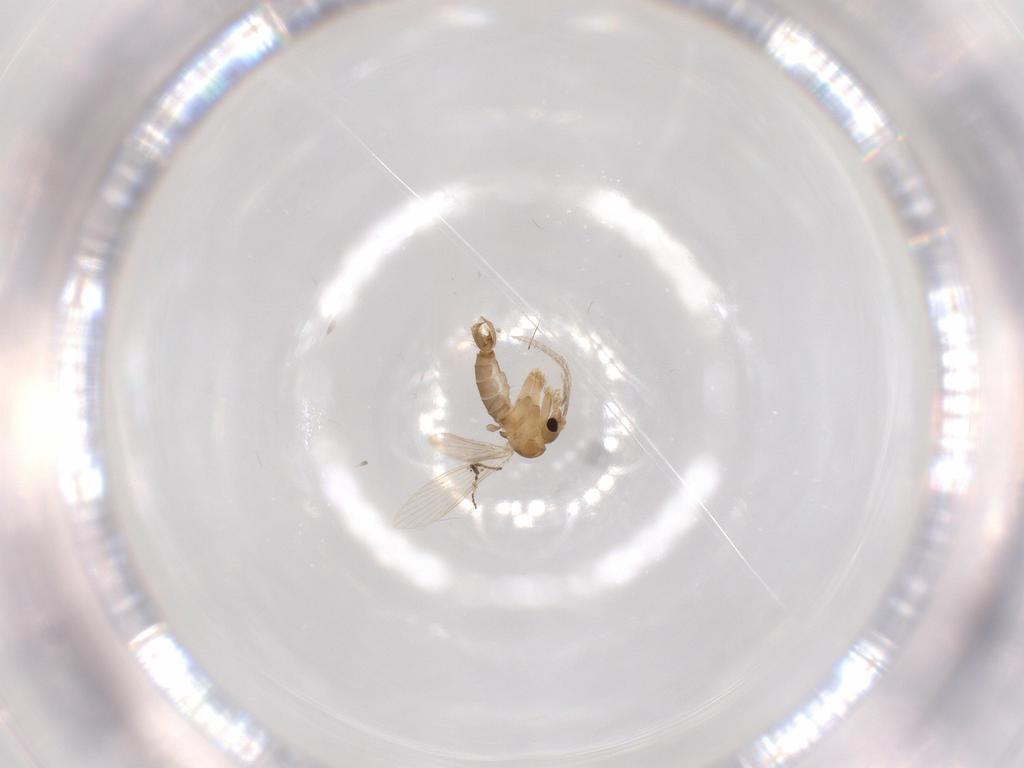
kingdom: Animalia
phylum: Arthropoda
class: Insecta
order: Diptera
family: Psychodidae
